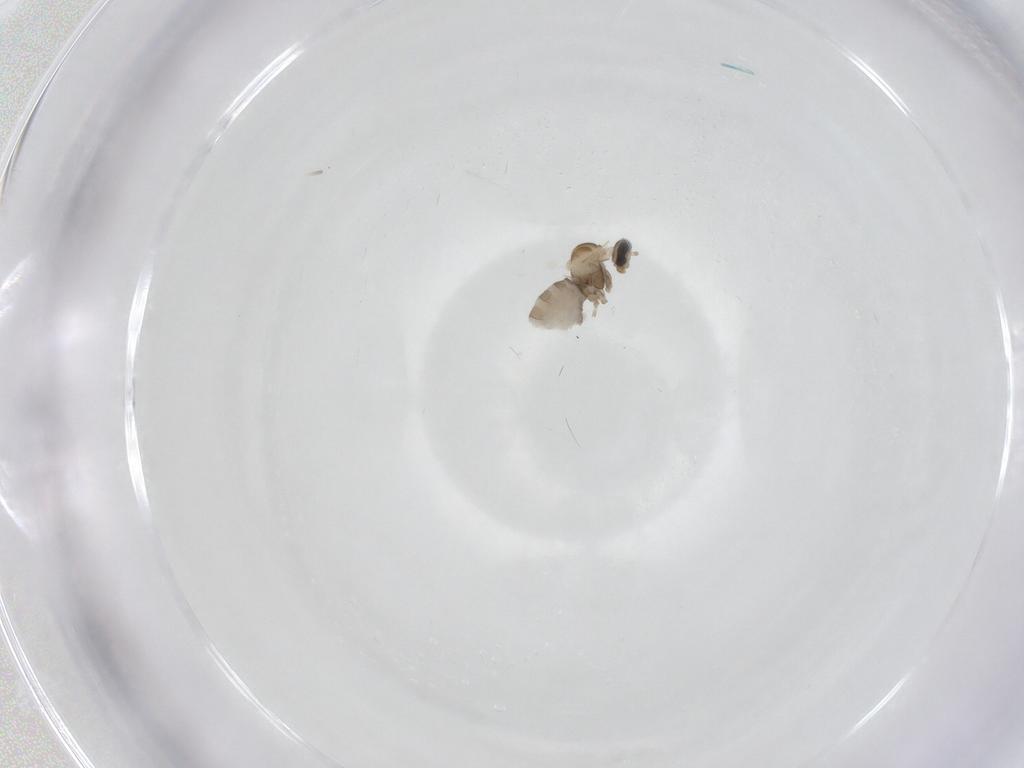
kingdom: Animalia
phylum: Arthropoda
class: Insecta
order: Diptera
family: Cecidomyiidae
